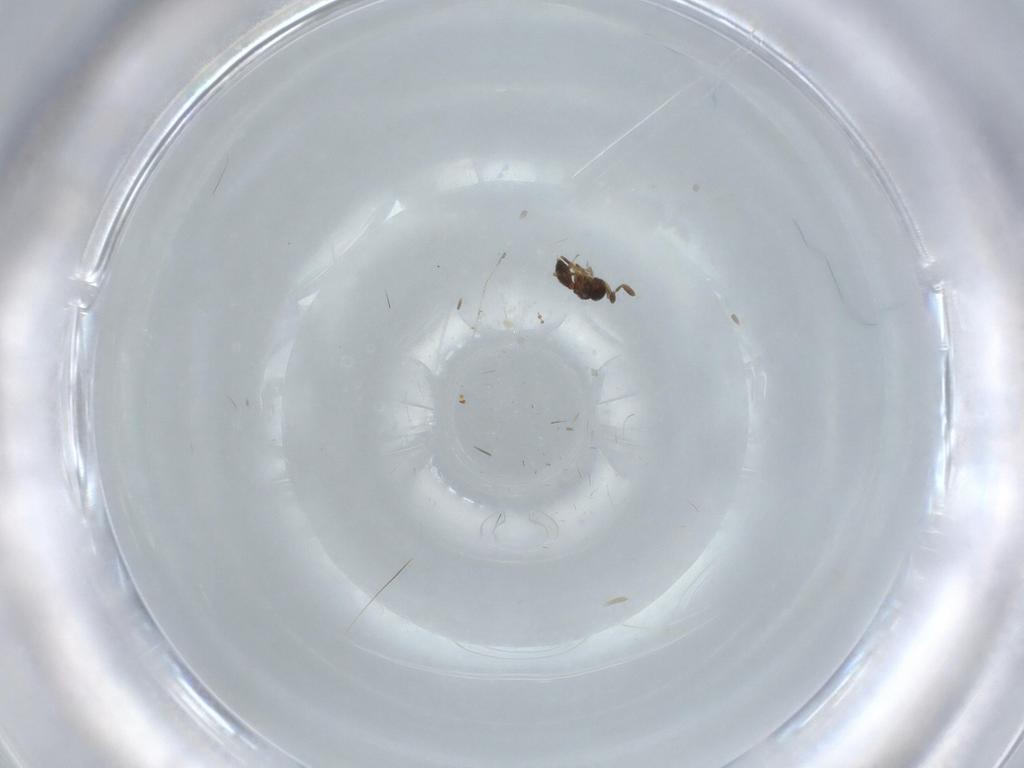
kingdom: Animalia
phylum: Arthropoda
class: Insecta
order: Hymenoptera
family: Scelionidae
